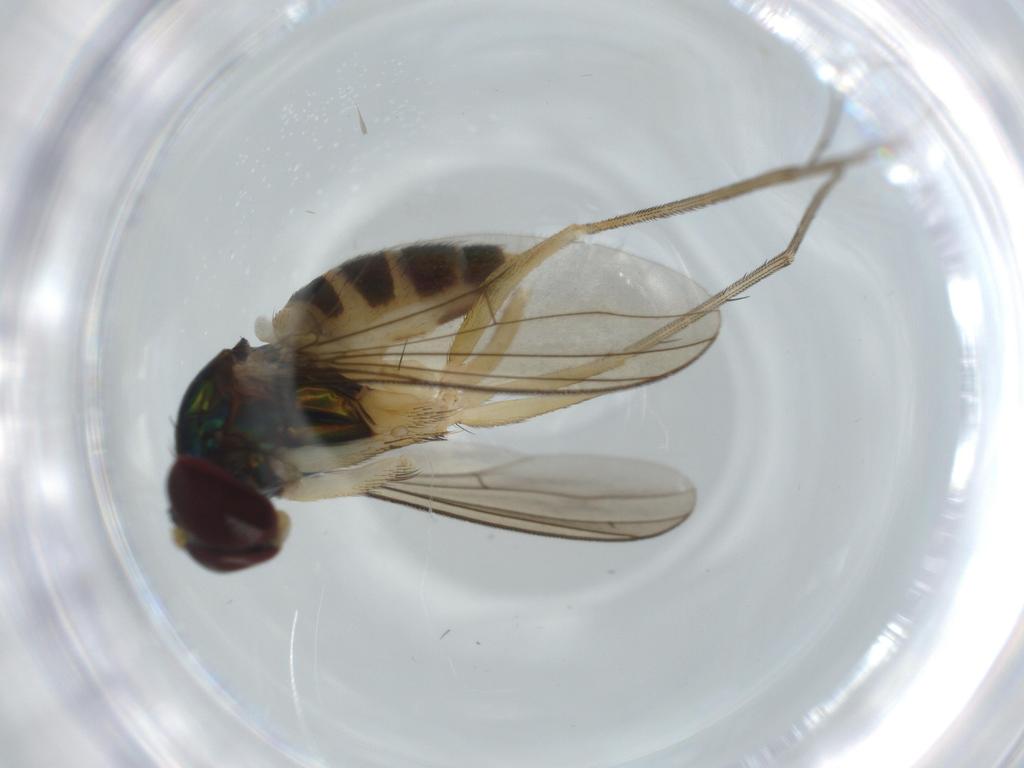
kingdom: Animalia
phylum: Arthropoda
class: Insecta
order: Diptera
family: Dolichopodidae
